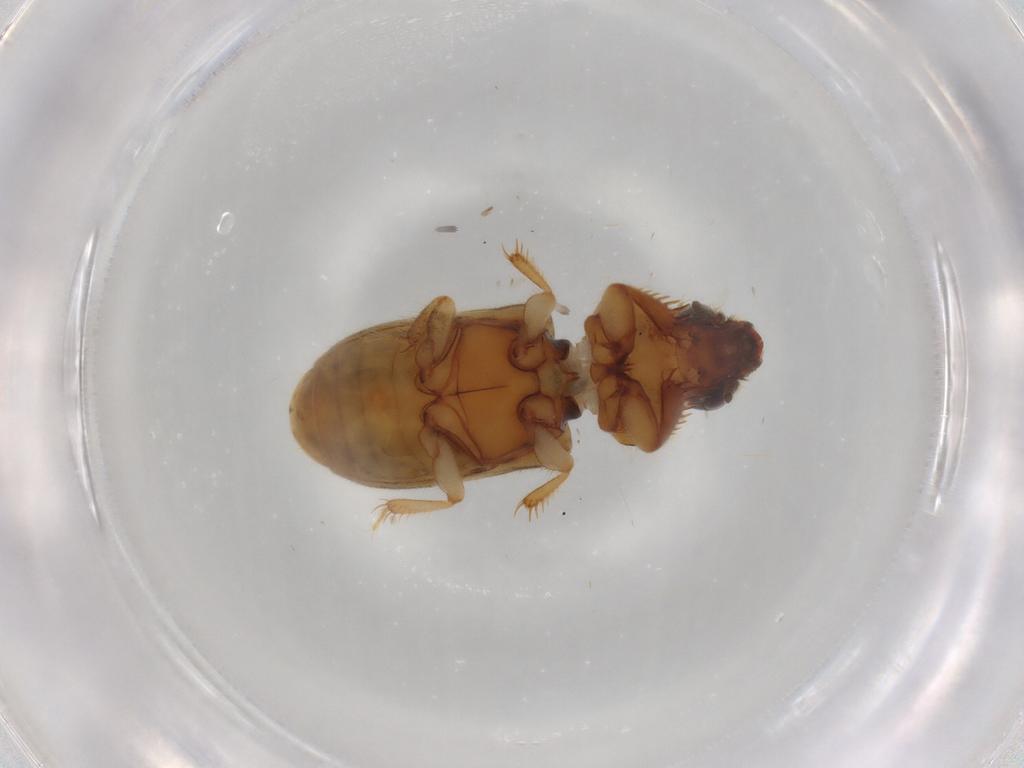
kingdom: Animalia
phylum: Arthropoda
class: Insecta
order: Coleoptera
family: Heteroceridae
